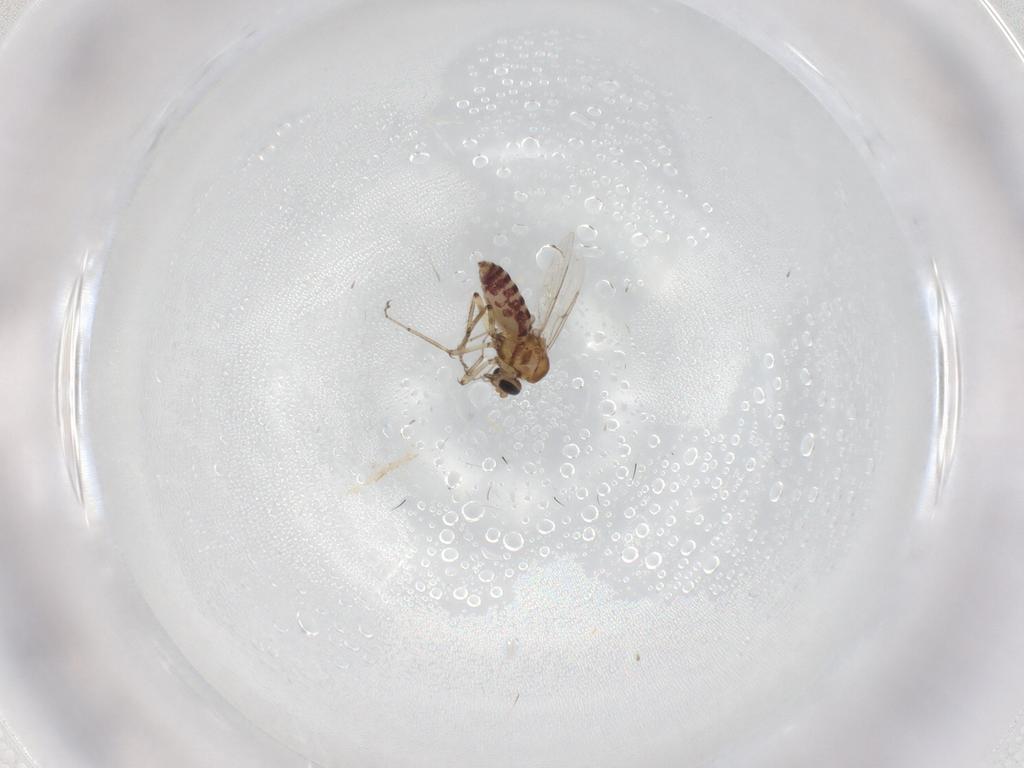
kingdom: Animalia
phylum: Arthropoda
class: Insecta
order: Diptera
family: Ceratopogonidae
